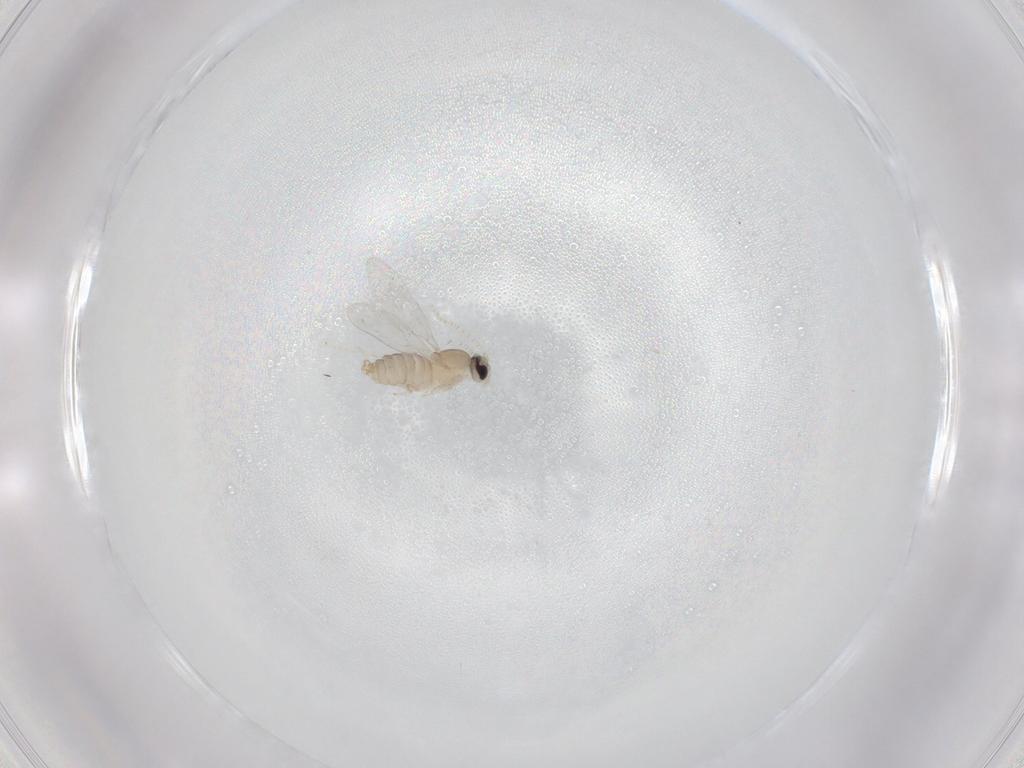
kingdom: Animalia
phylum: Arthropoda
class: Insecta
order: Diptera
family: Cecidomyiidae
